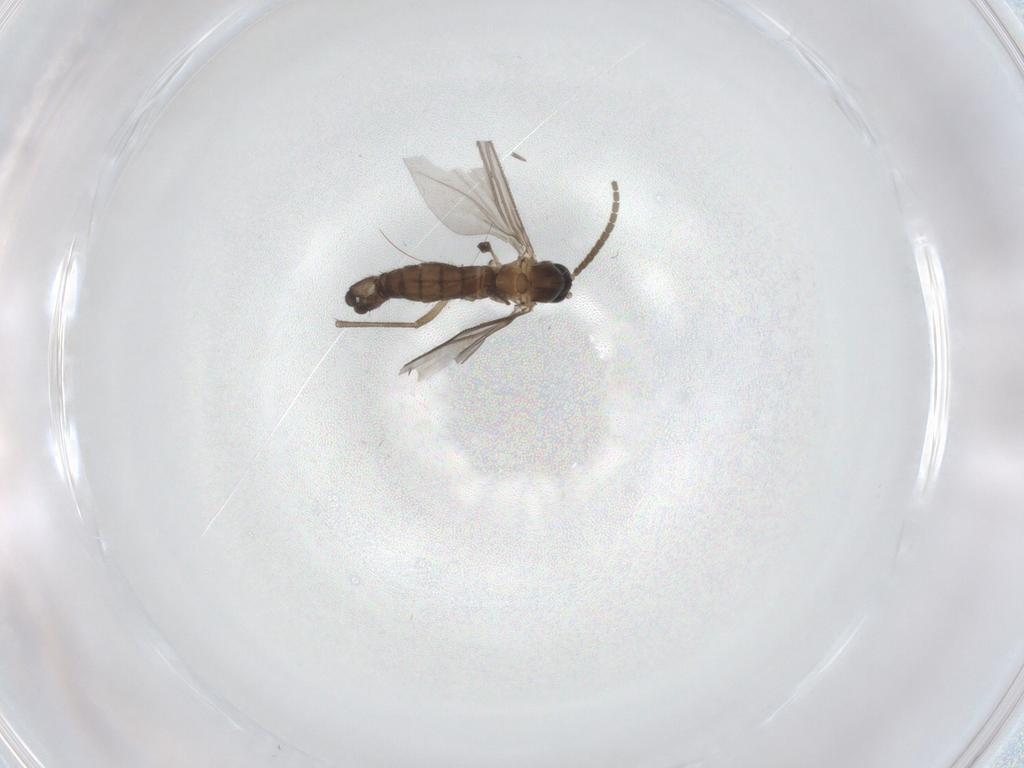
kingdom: Animalia
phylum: Arthropoda
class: Insecta
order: Diptera
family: Sciaridae
